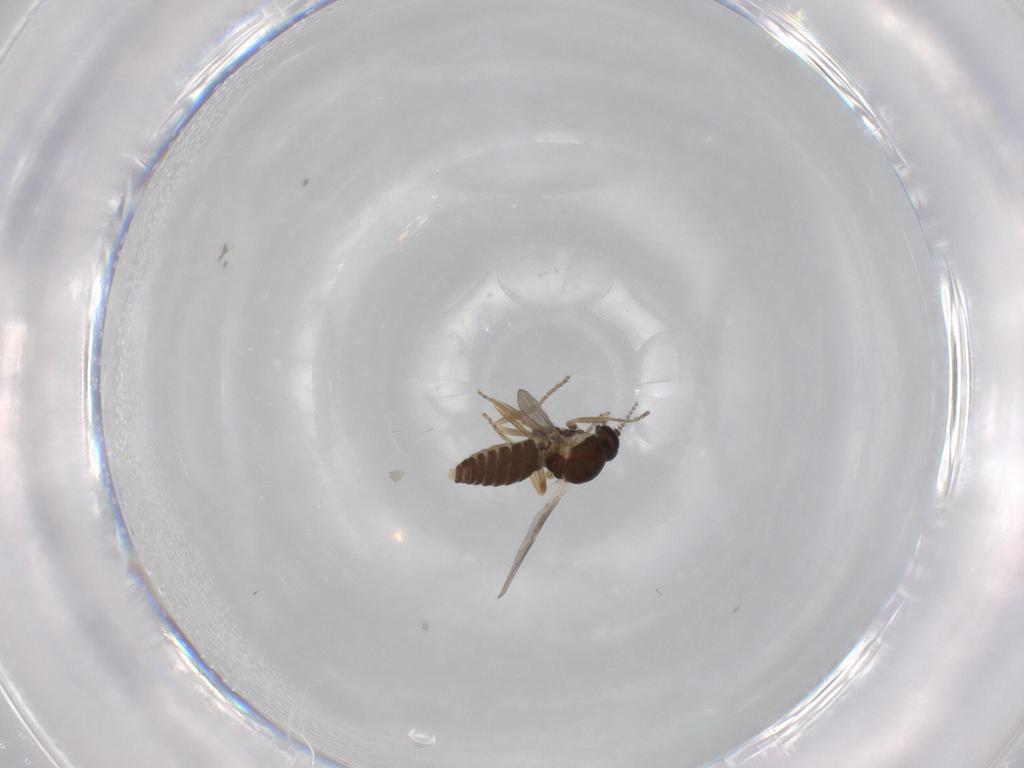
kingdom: Animalia
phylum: Arthropoda
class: Insecta
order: Diptera
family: Ceratopogonidae
